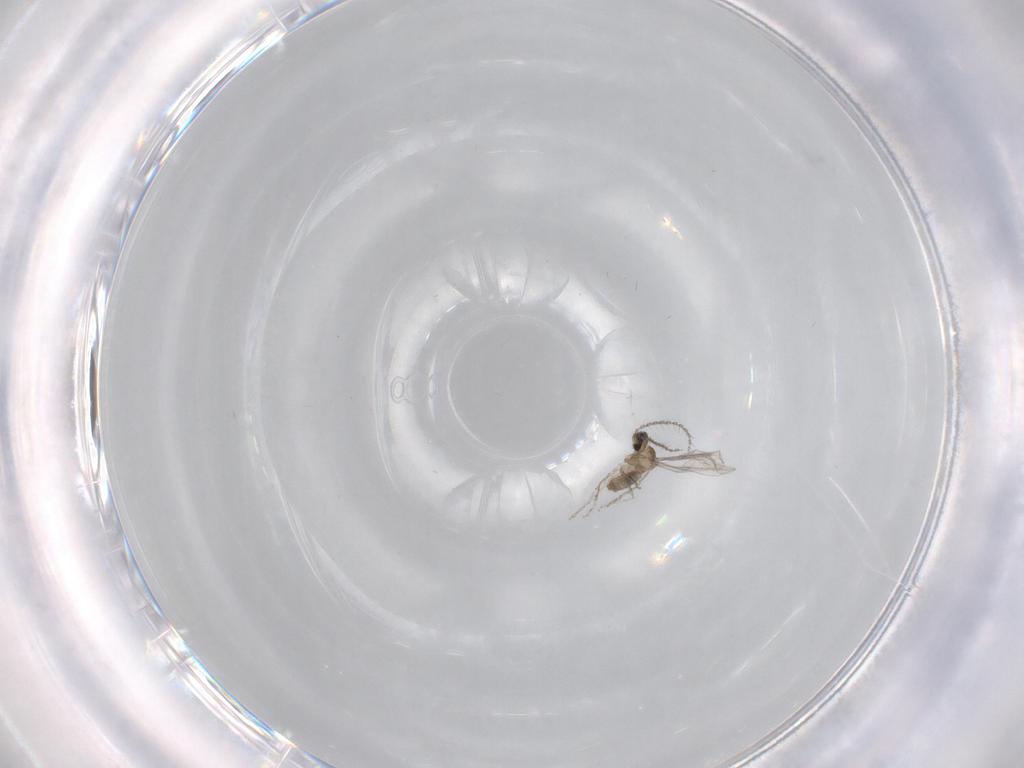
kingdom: Animalia
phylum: Arthropoda
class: Insecta
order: Diptera
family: Cecidomyiidae
